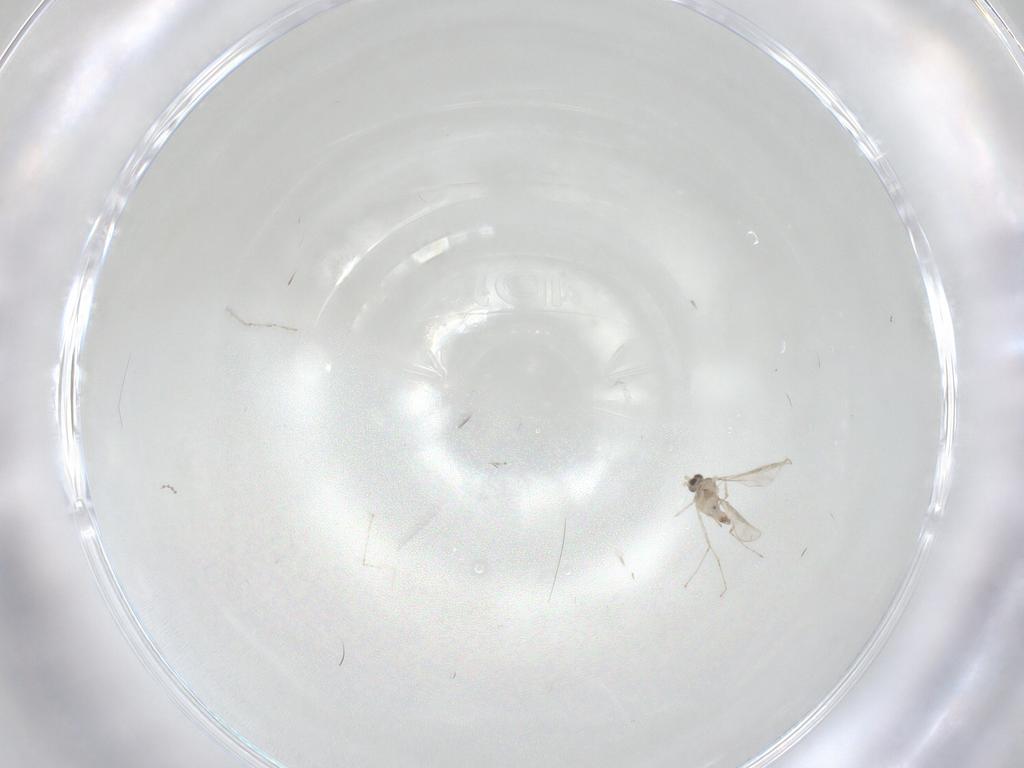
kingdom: Animalia
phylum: Arthropoda
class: Insecta
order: Diptera
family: Cecidomyiidae
